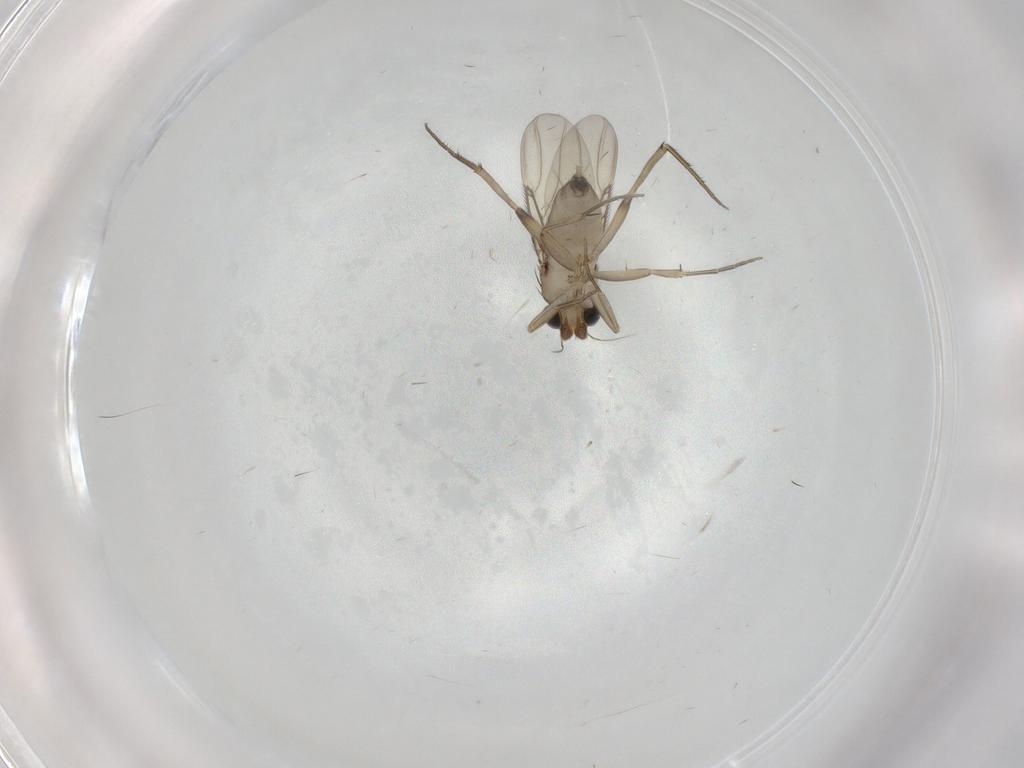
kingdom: Animalia
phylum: Arthropoda
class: Insecta
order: Diptera
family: Phoridae
